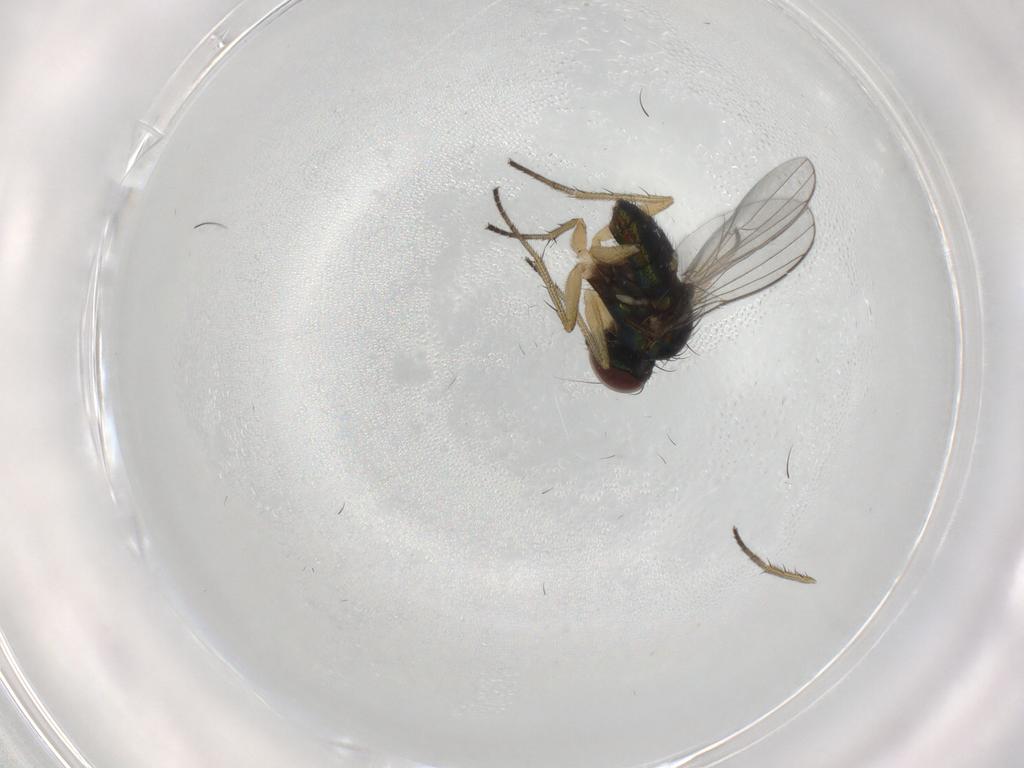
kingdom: Animalia
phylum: Arthropoda
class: Insecta
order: Diptera
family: Dolichopodidae
